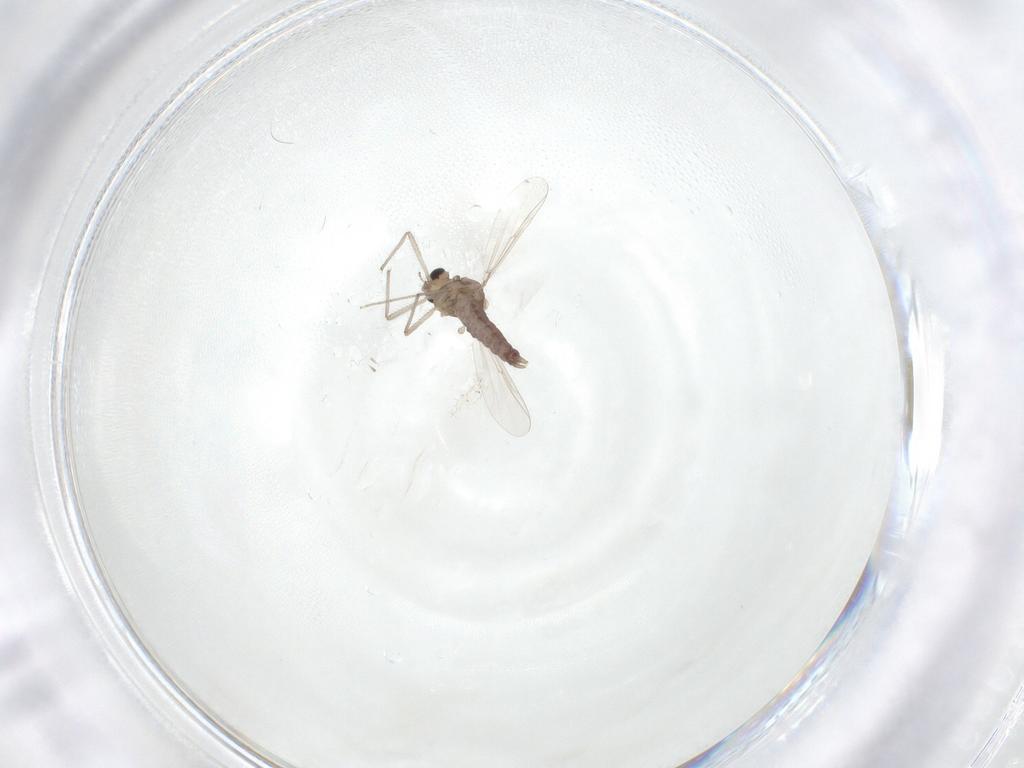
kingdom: Animalia
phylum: Arthropoda
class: Insecta
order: Diptera
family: Chironomidae
